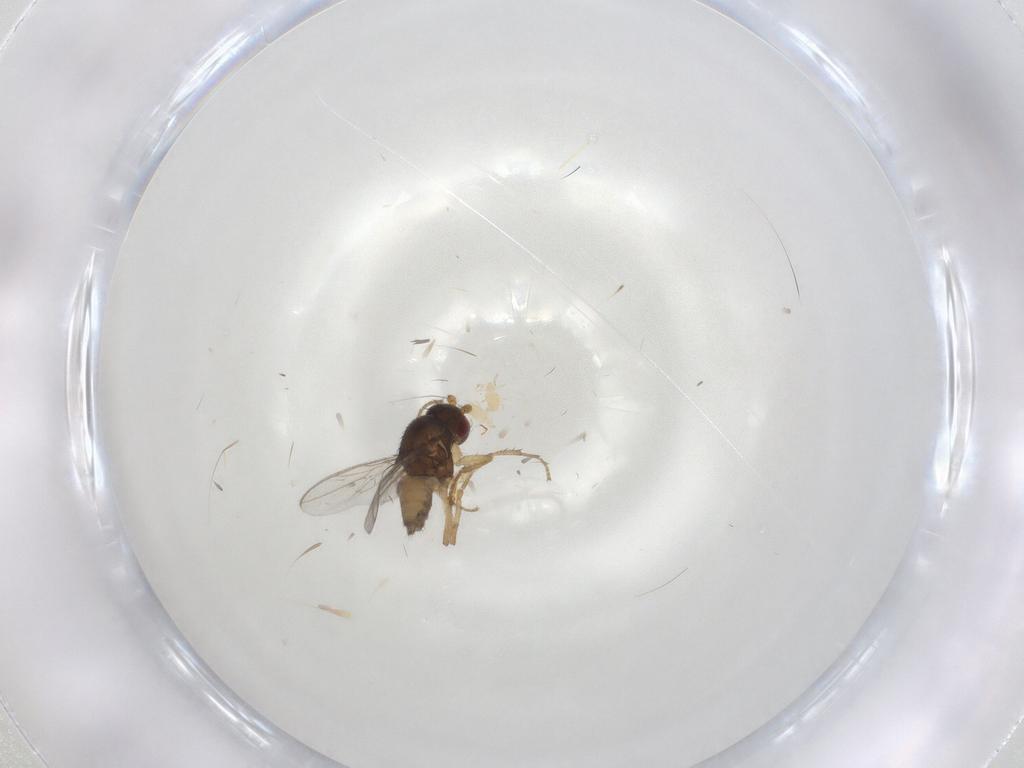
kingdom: Animalia
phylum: Arthropoda
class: Insecta
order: Diptera
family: Sphaeroceridae
